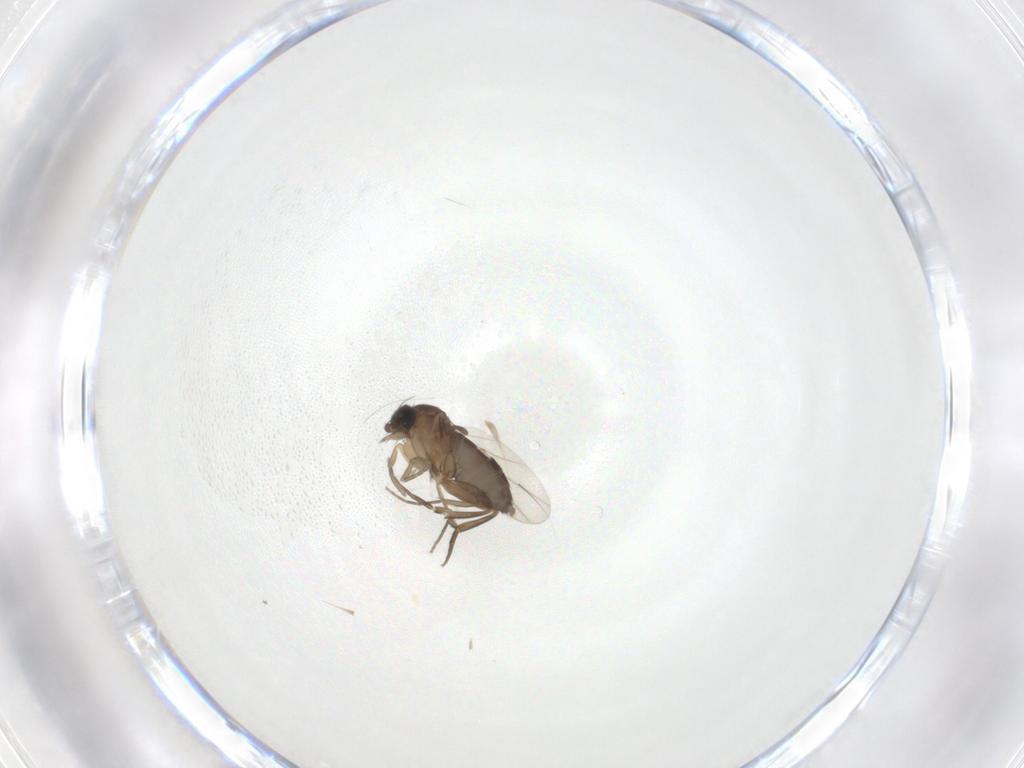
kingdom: Animalia
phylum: Arthropoda
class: Insecta
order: Diptera
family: Phoridae
